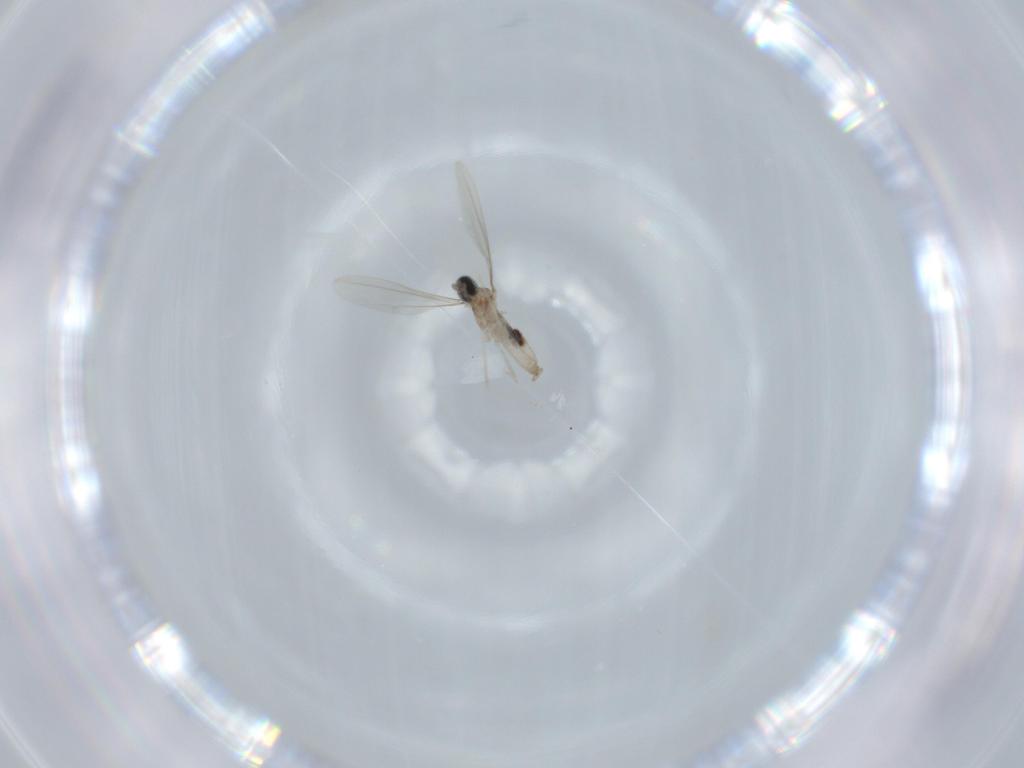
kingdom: Animalia
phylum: Arthropoda
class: Insecta
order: Diptera
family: Cecidomyiidae
